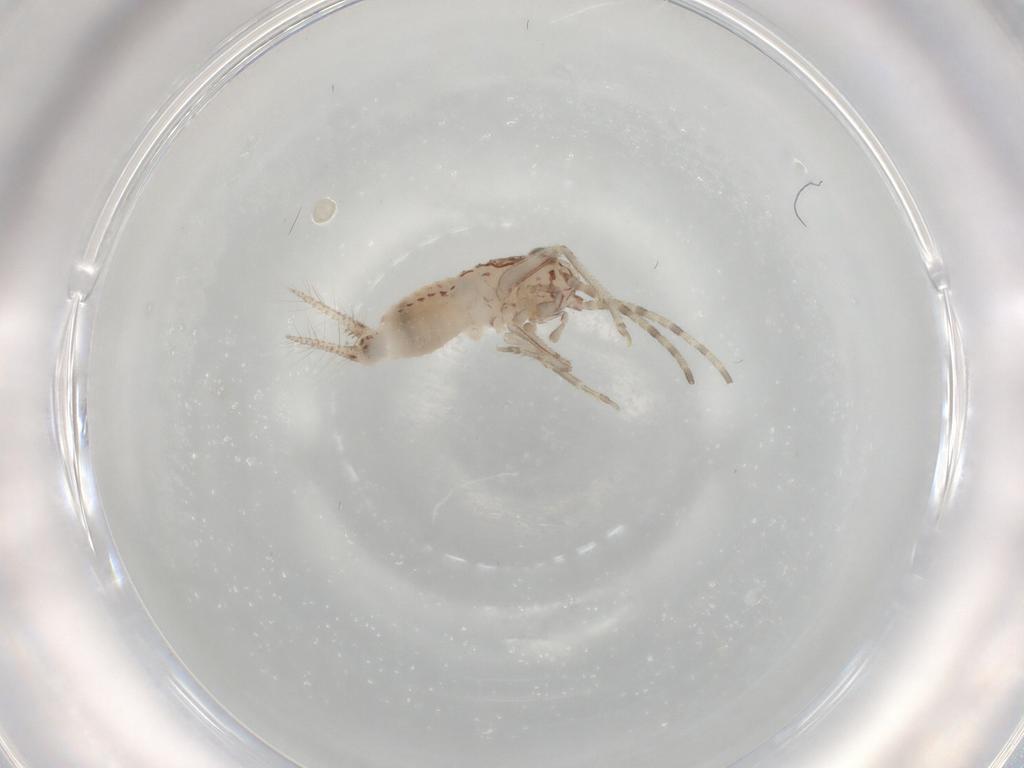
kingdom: Animalia
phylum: Arthropoda
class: Insecta
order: Orthoptera
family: Trigonidiidae
